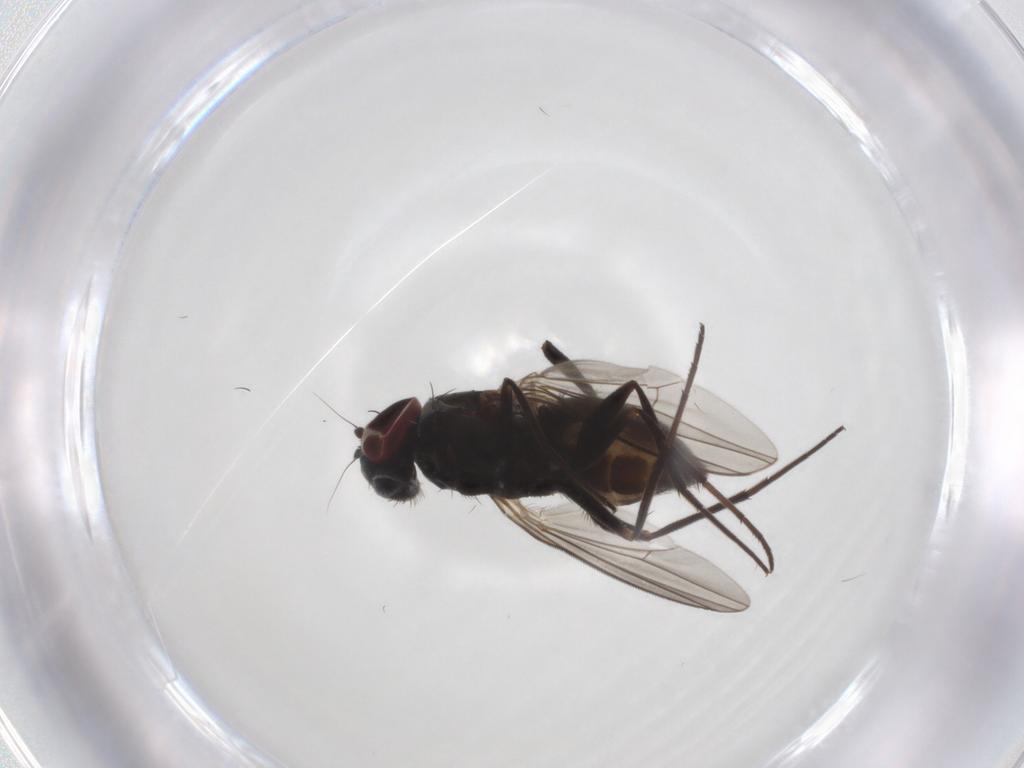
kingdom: Animalia
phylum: Arthropoda
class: Insecta
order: Diptera
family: Dolichopodidae
